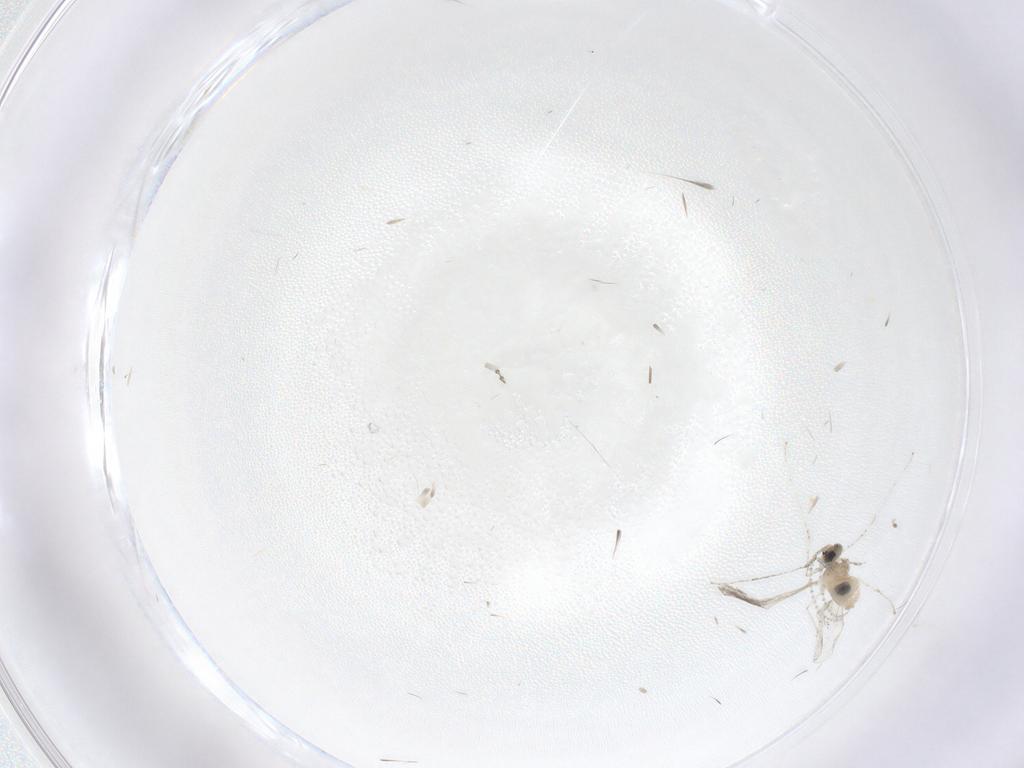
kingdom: Animalia
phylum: Arthropoda
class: Insecta
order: Diptera
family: Cecidomyiidae
